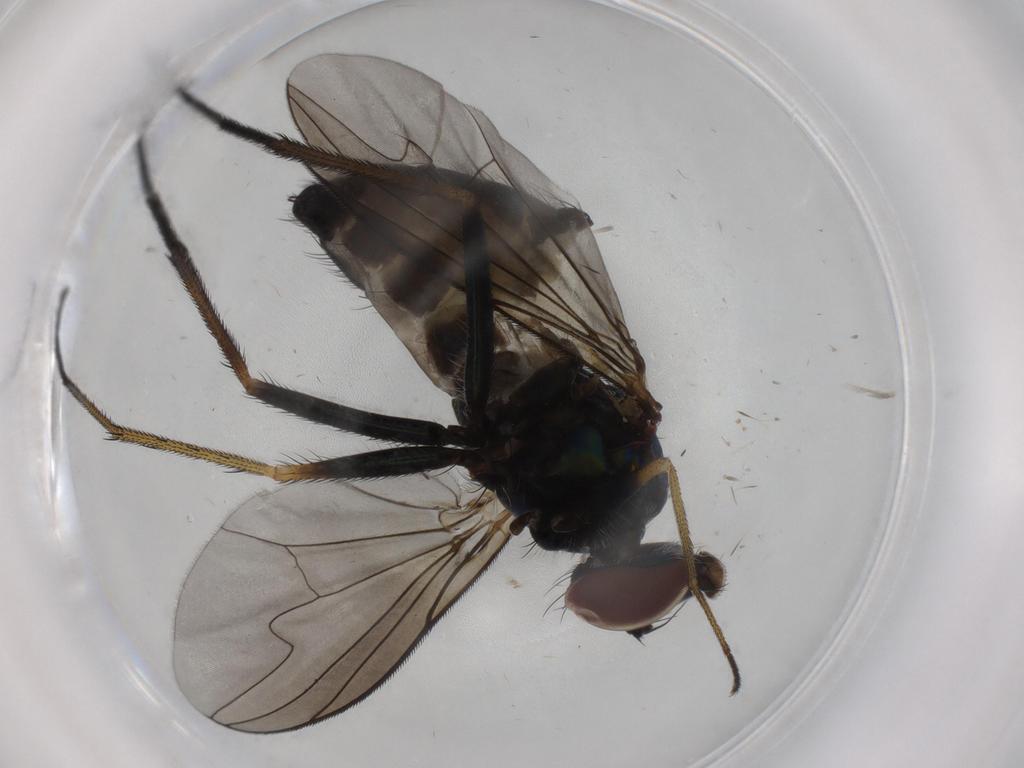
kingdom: Animalia
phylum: Arthropoda
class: Insecta
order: Diptera
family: Dolichopodidae
